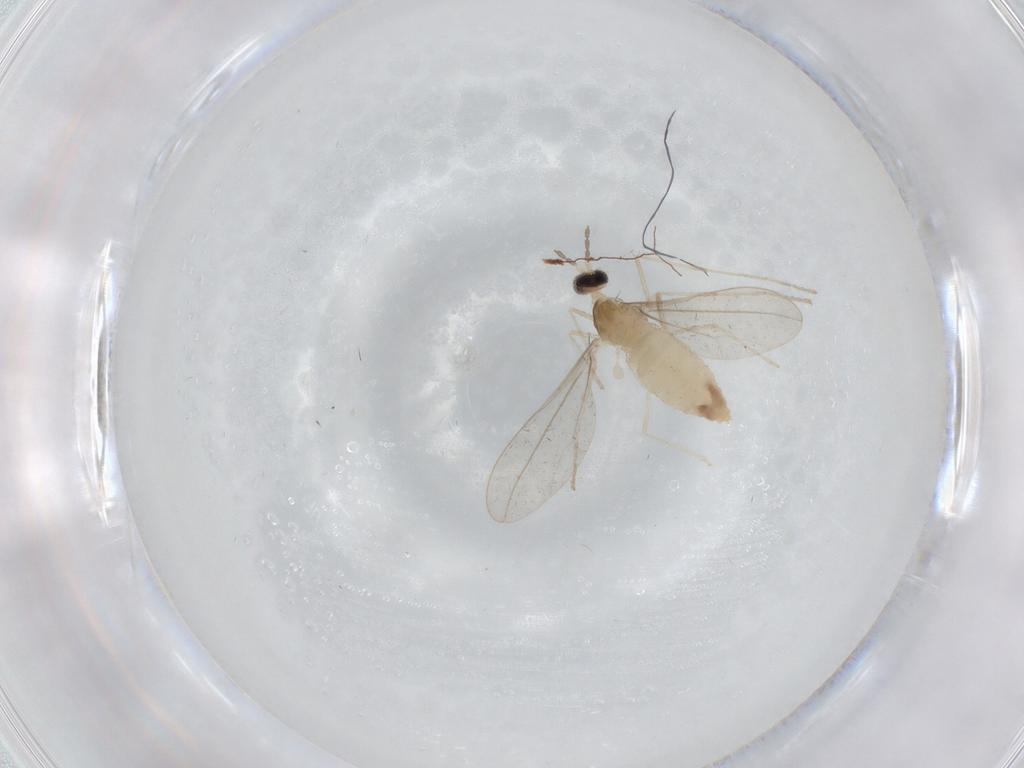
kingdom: Animalia
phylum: Arthropoda
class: Insecta
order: Diptera
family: Cecidomyiidae
